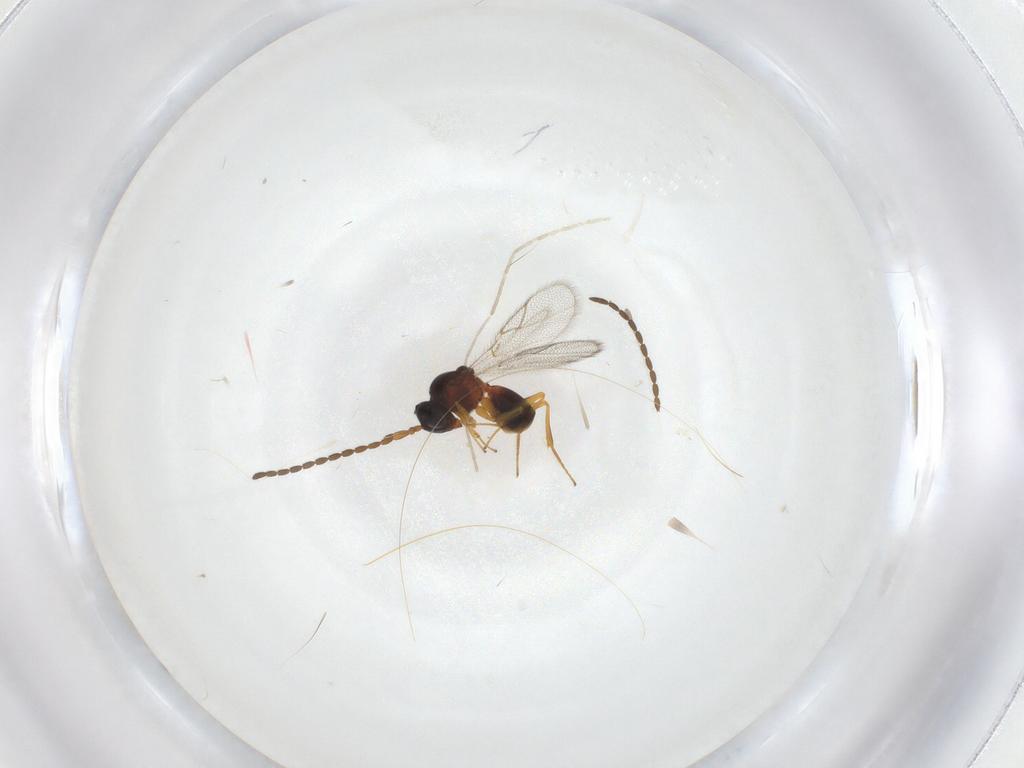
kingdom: Animalia
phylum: Arthropoda
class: Insecta
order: Hymenoptera
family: Figitidae
